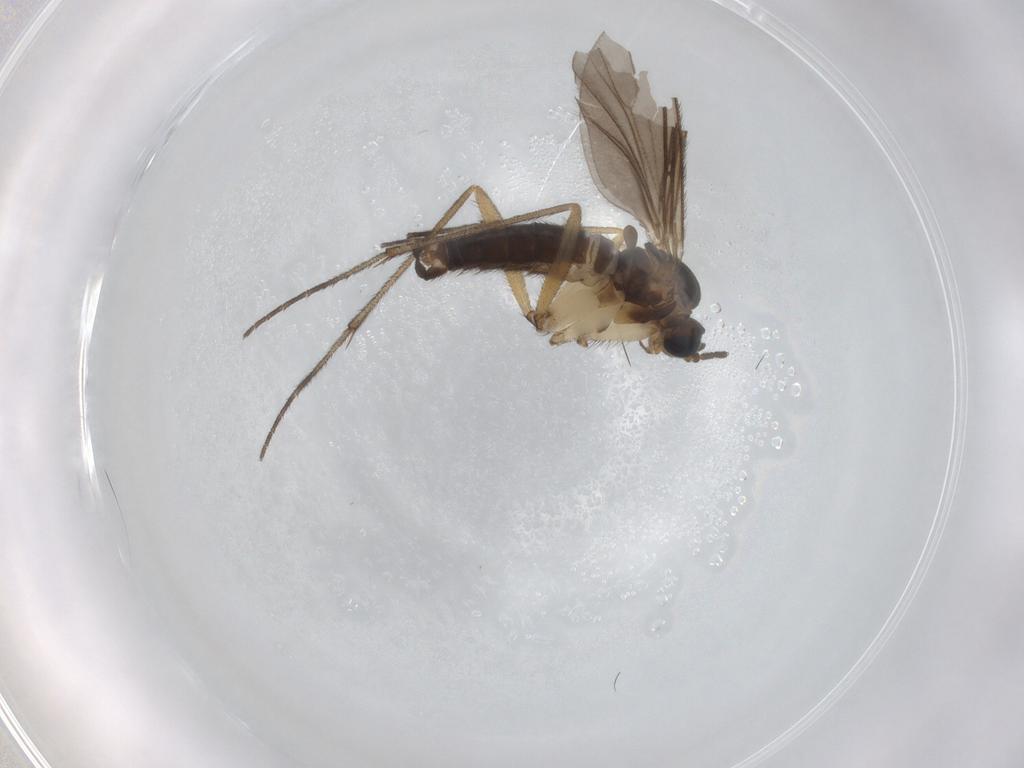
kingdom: Animalia
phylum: Arthropoda
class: Insecta
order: Diptera
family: Sciaridae
